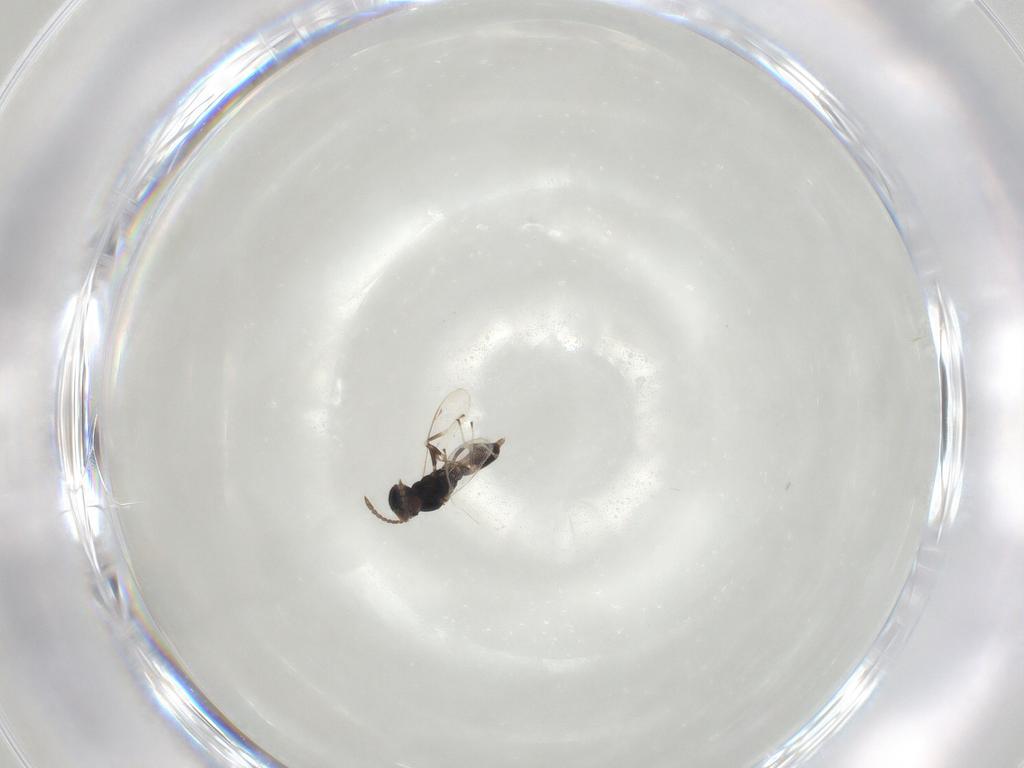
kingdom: Animalia
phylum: Arthropoda
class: Insecta
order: Hymenoptera
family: Pteromalidae
